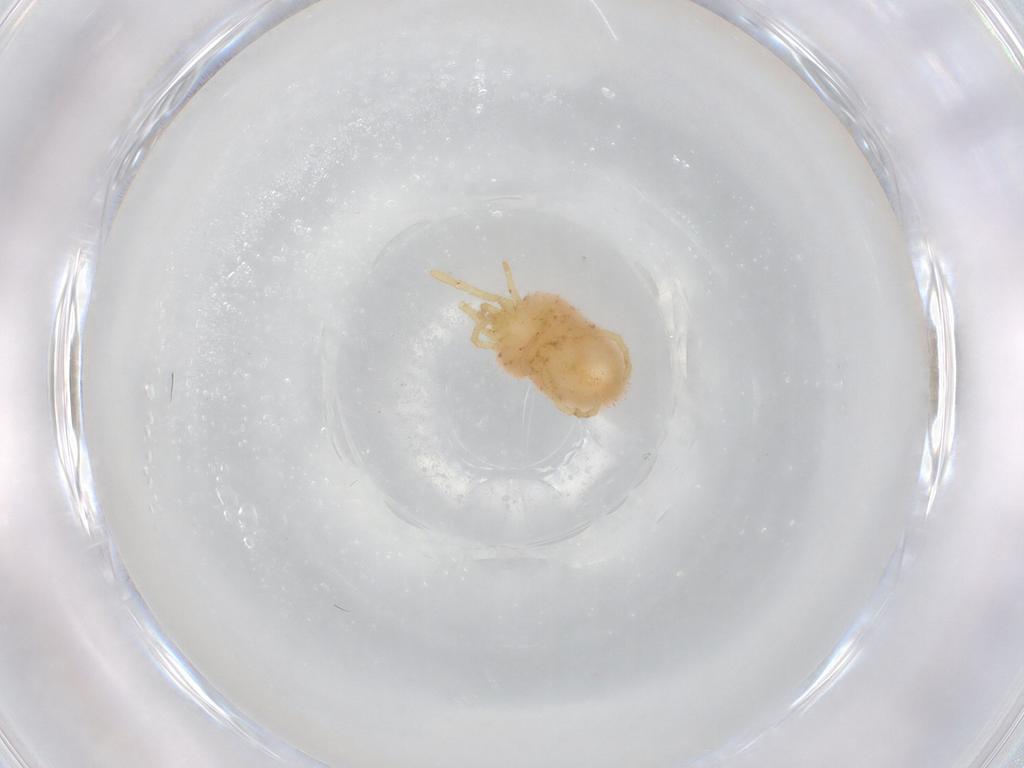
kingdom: Animalia
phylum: Arthropoda
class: Arachnida
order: Trombidiformes
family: Trombidiidae
